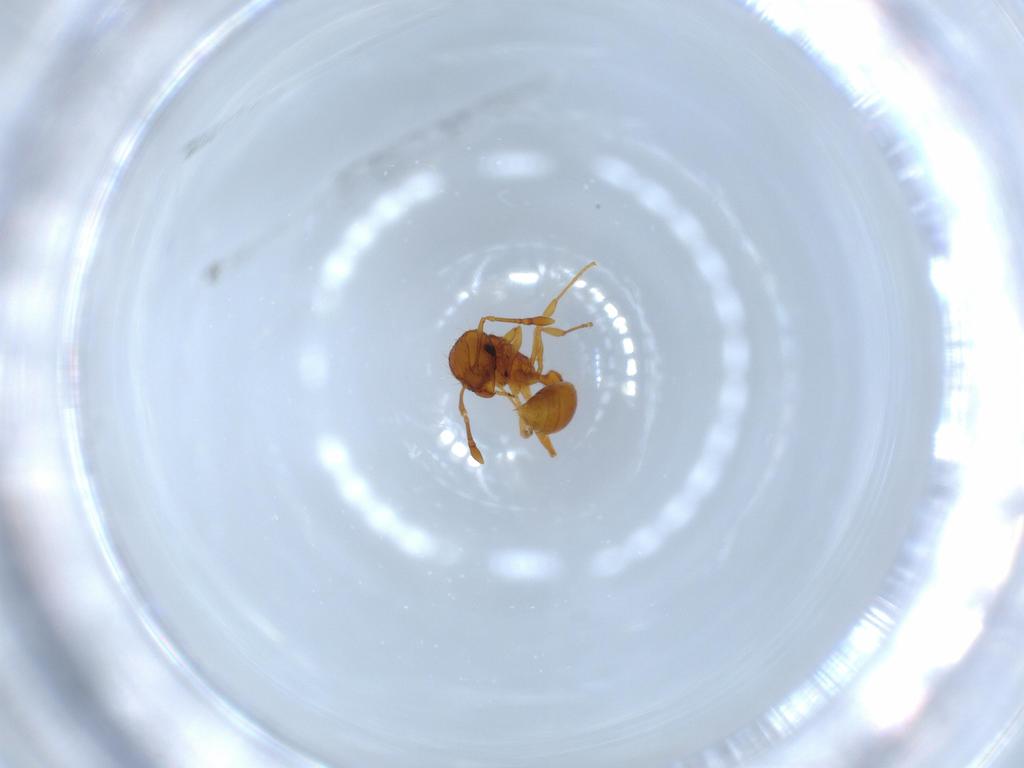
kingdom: Animalia
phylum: Arthropoda
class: Insecta
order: Hymenoptera
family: Formicidae
